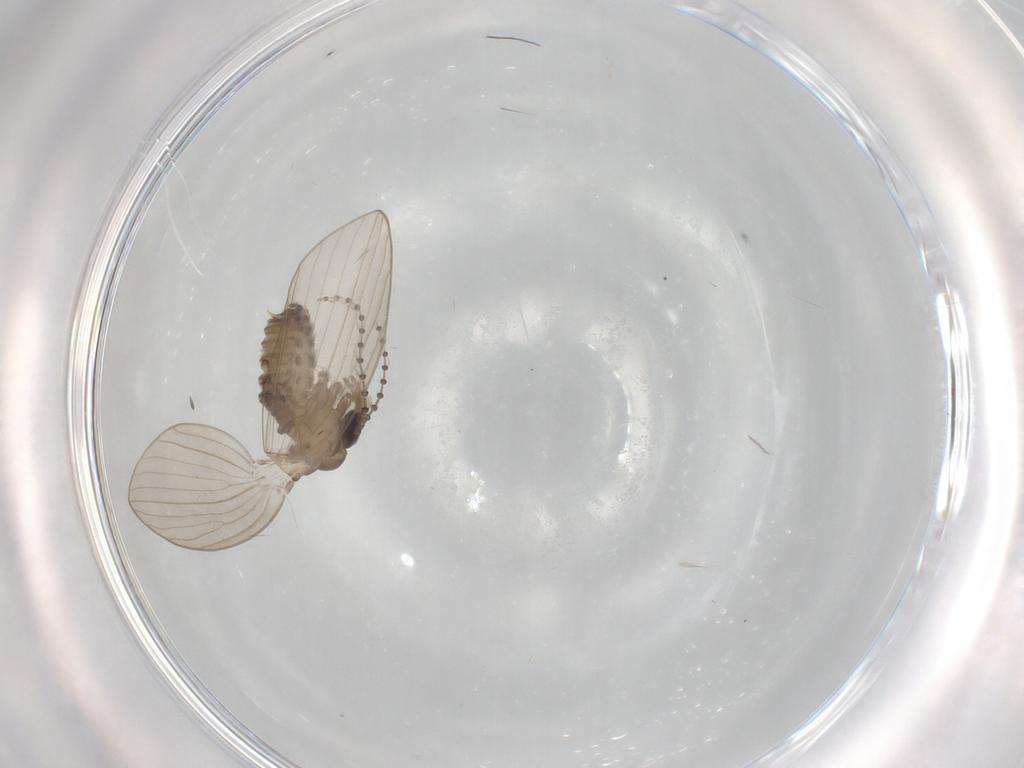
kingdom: Animalia
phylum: Arthropoda
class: Insecta
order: Diptera
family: Psychodidae
